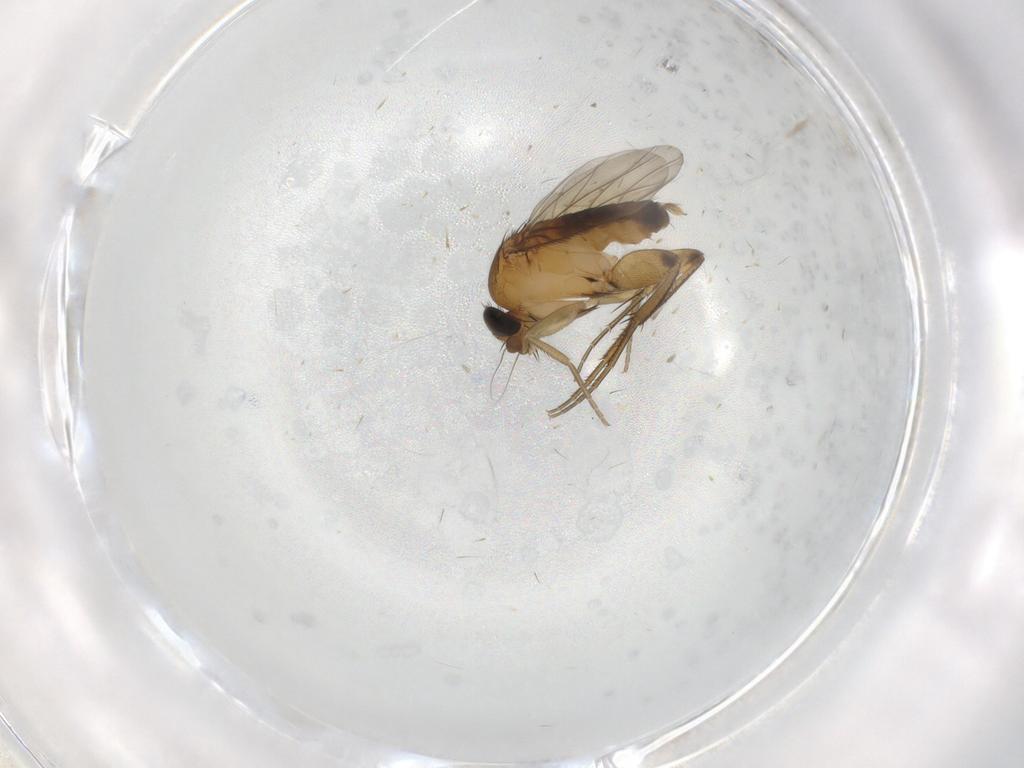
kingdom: Animalia
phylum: Arthropoda
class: Insecta
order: Diptera
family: Phoridae
